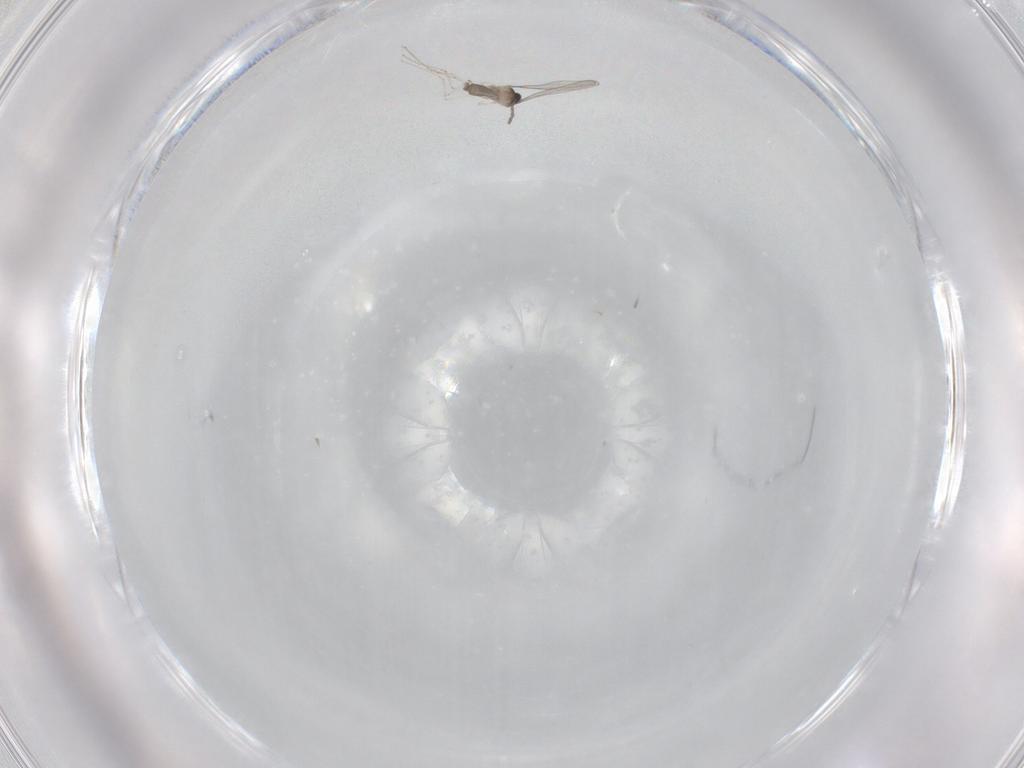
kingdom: Animalia
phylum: Arthropoda
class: Insecta
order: Diptera
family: Cecidomyiidae
